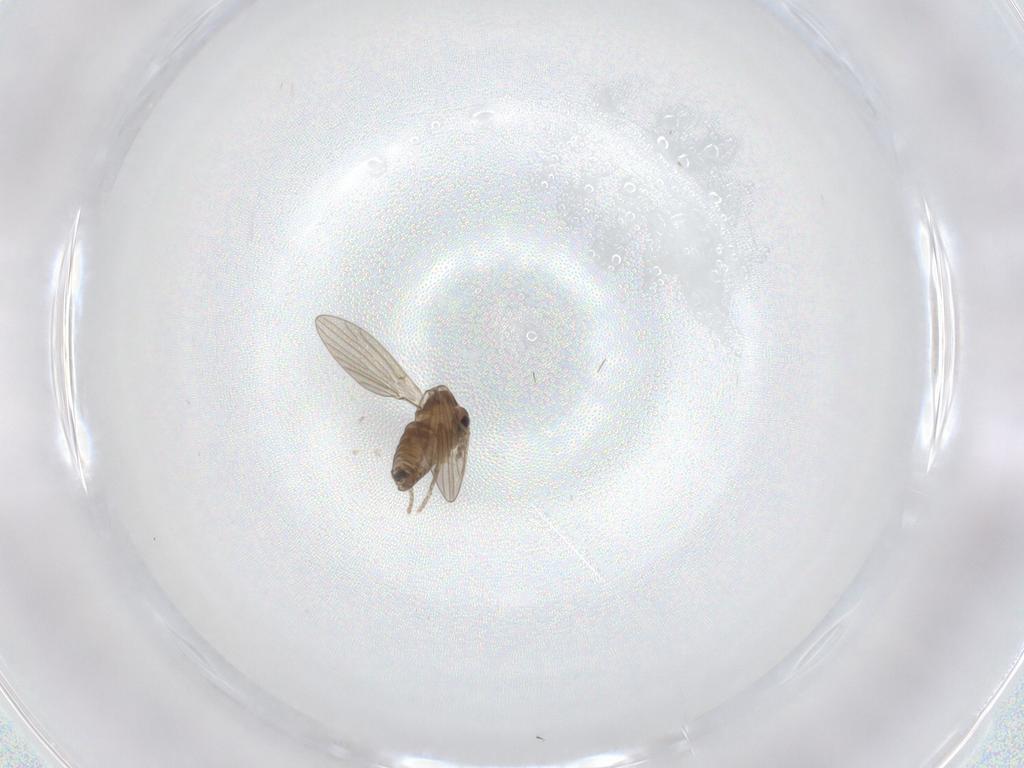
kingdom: Animalia
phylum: Arthropoda
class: Insecta
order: Diptera
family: Psychodidae
